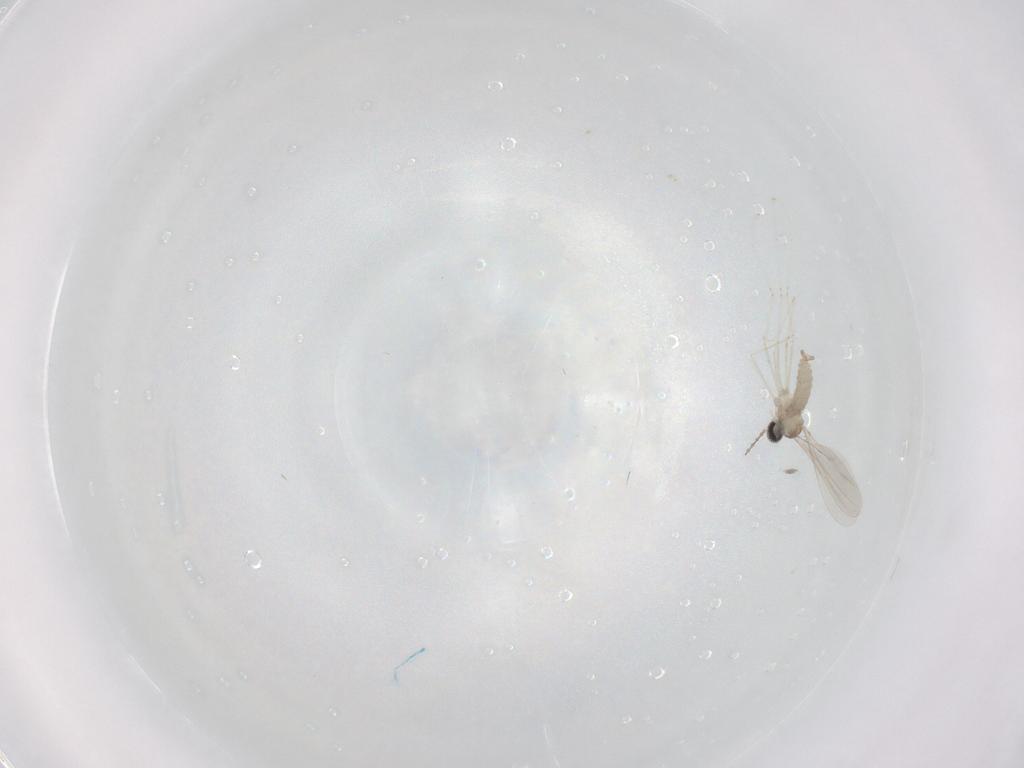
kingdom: Animalia
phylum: Arthropoda
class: Insecta
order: Diptera
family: Cecidomyiidae
